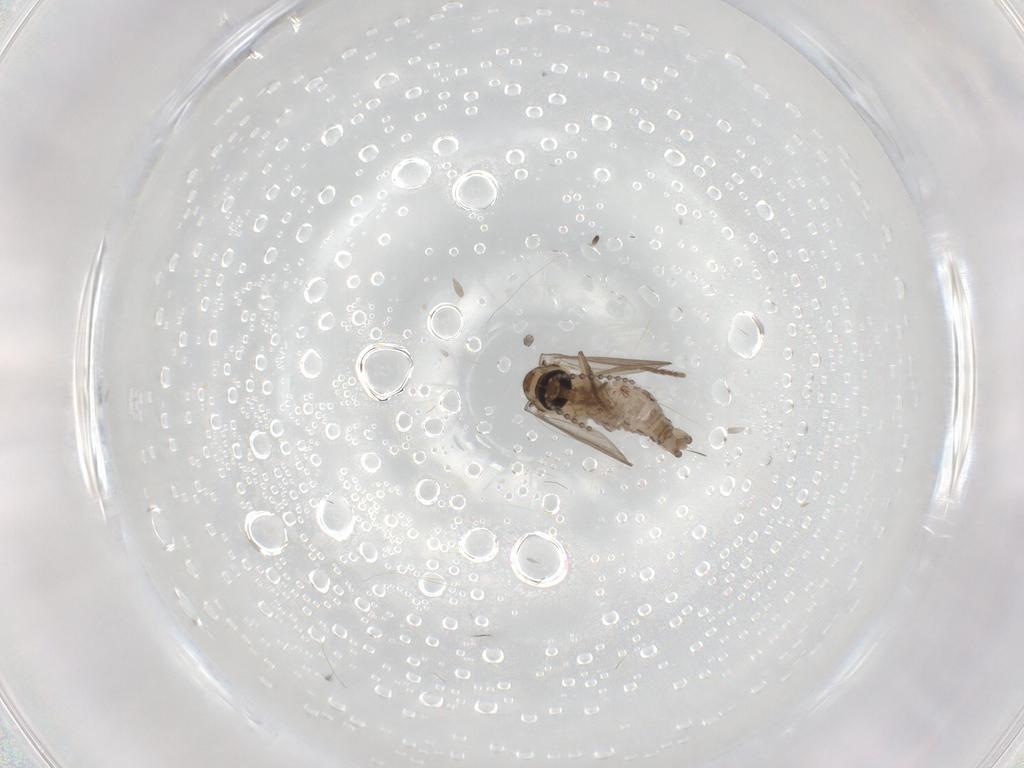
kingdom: Animalia
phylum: Arthropoda
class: Insecta
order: Diptera
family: Psychodidae
